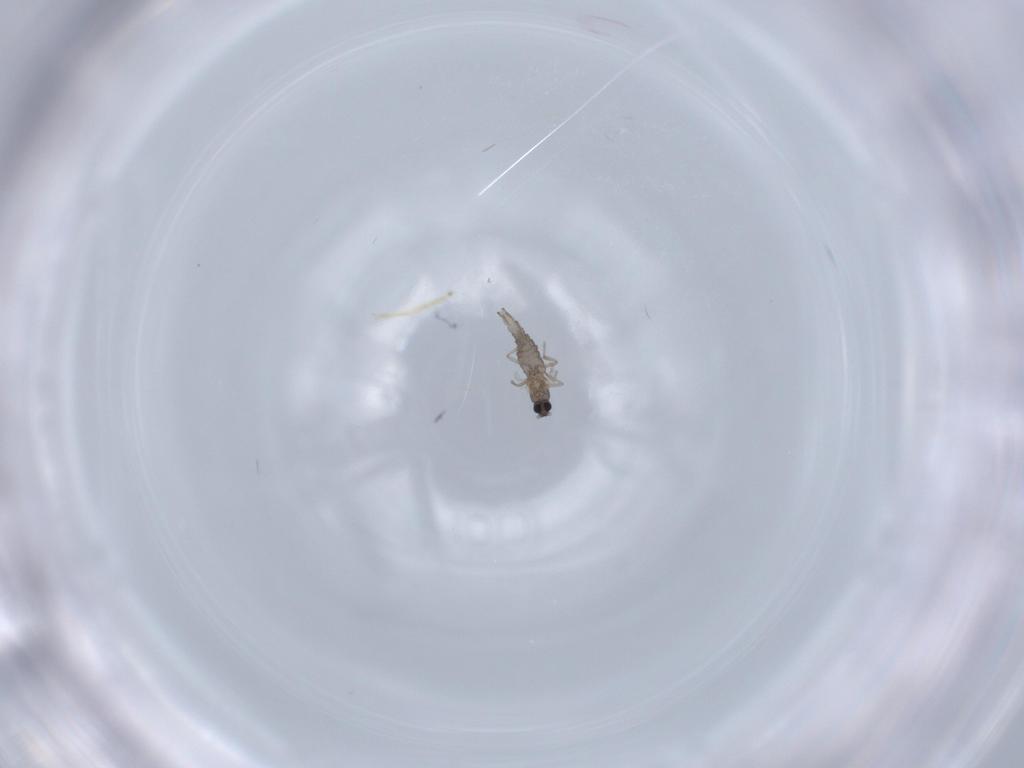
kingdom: Animalia
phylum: Arthropoda
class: Insecta
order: Diptera
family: Cecidomyiidae
